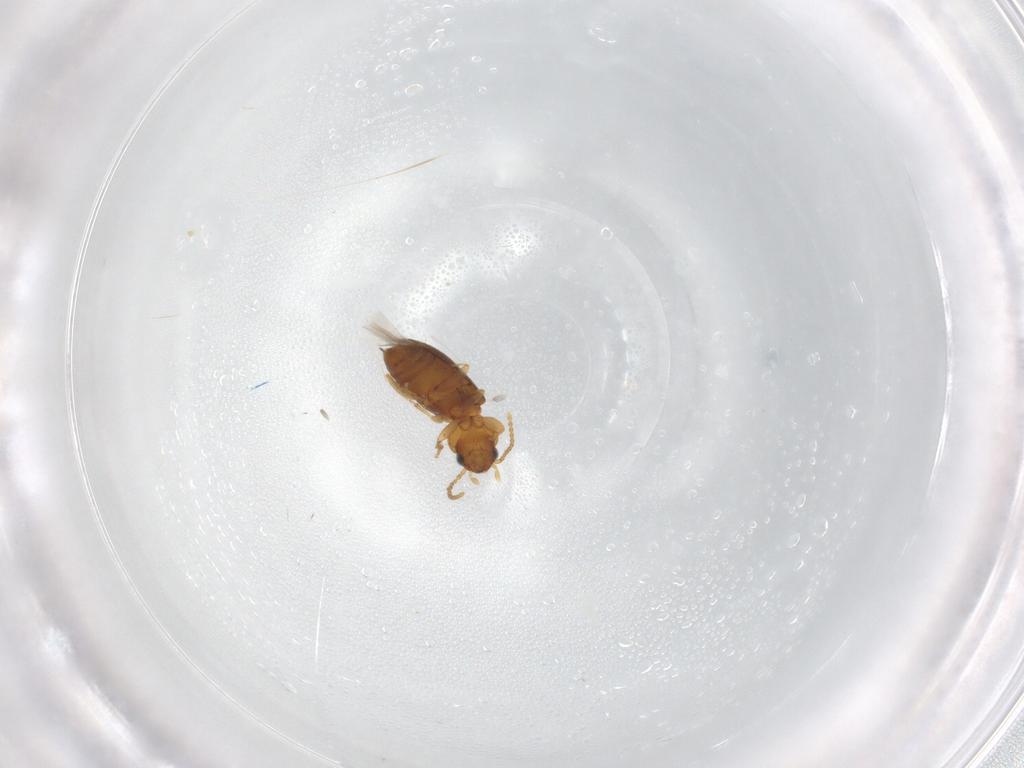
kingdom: Animalia
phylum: Arthropoda
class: Insecta
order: Coleoptera
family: Carabidae
